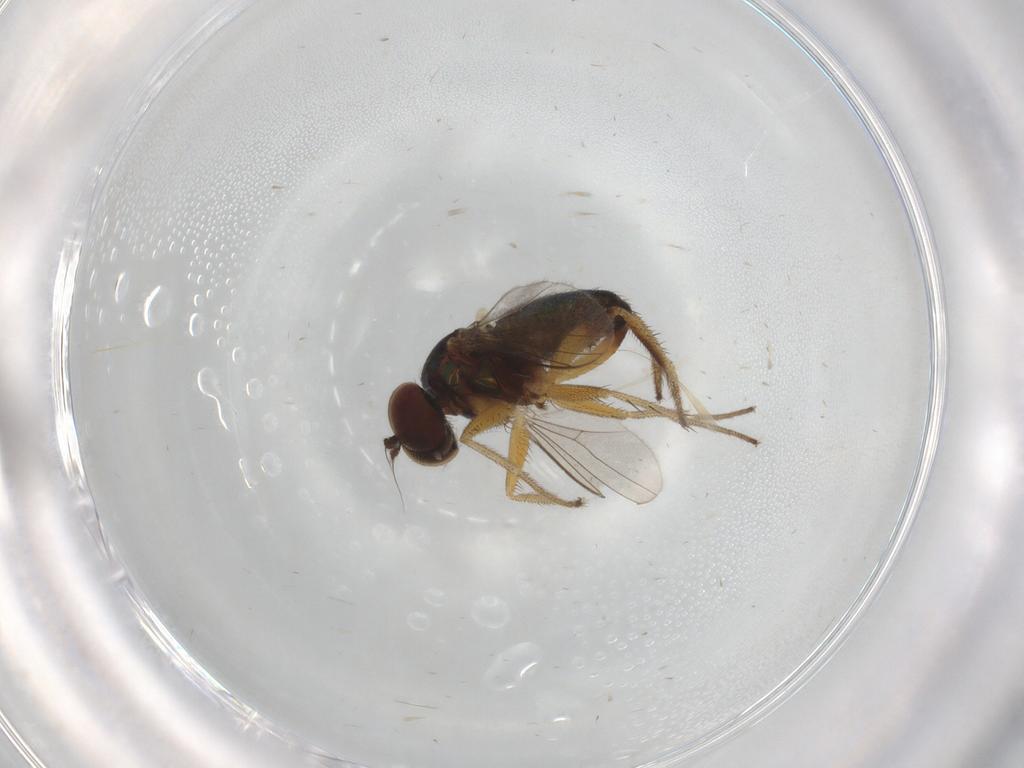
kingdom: Animalia
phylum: Arthropoda
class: Insecta
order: Diptera
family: Ceratopogonidae
